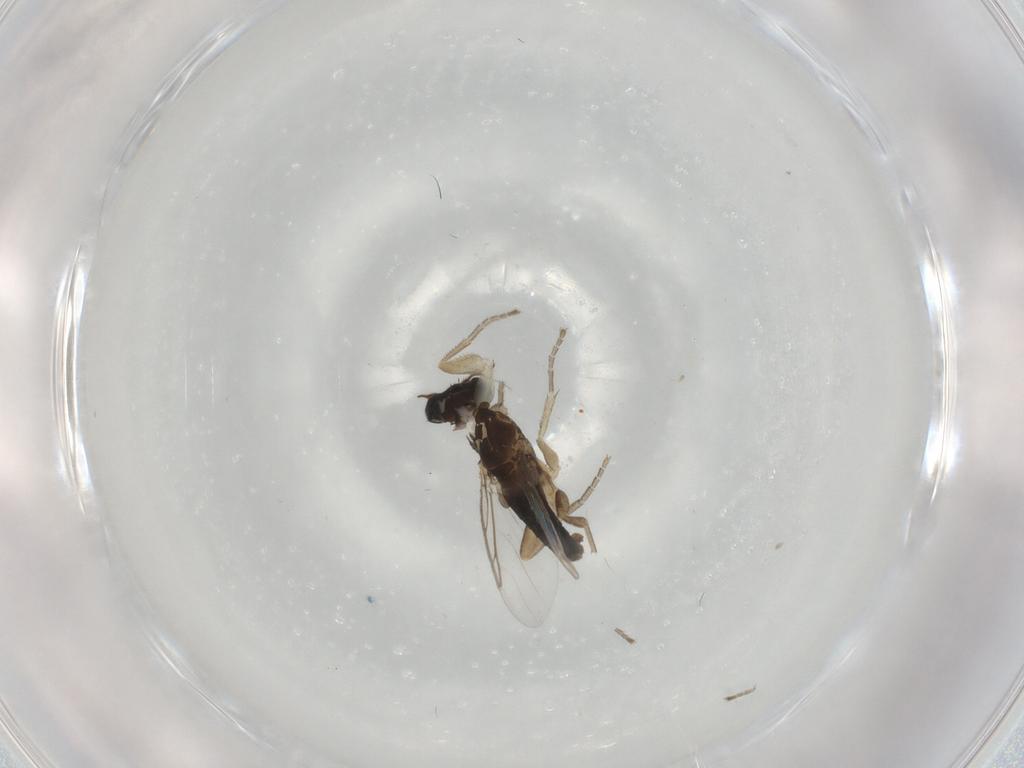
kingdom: Animalia
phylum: Arthropoda
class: Insecta
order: Diptera
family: Phoridae
